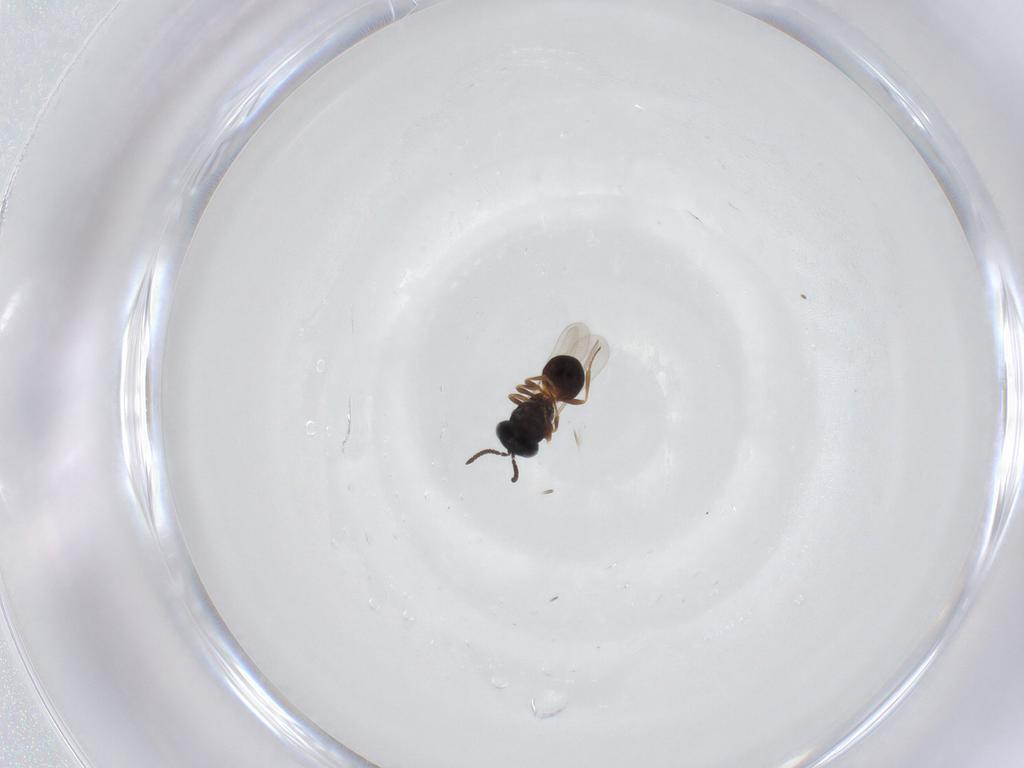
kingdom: Animalia
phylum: Arthropoda
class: Arachnida
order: Araneae
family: Pholcidae
